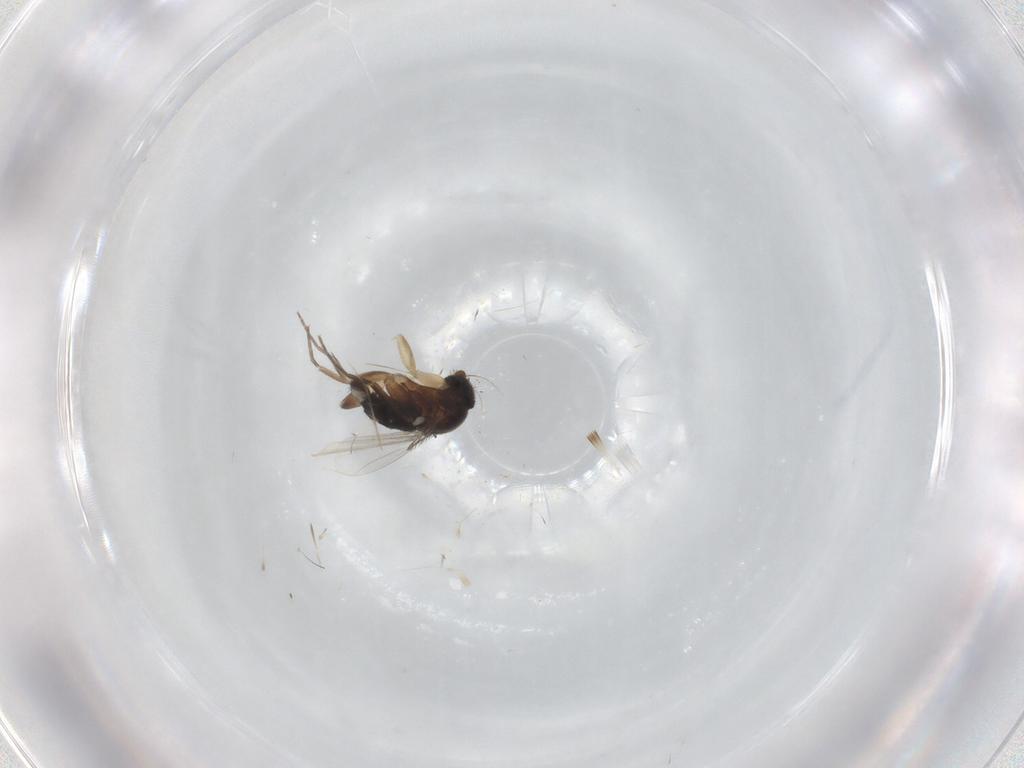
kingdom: Animalia
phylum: Arthropoda
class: Insecta
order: Diptera
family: Phoridae
